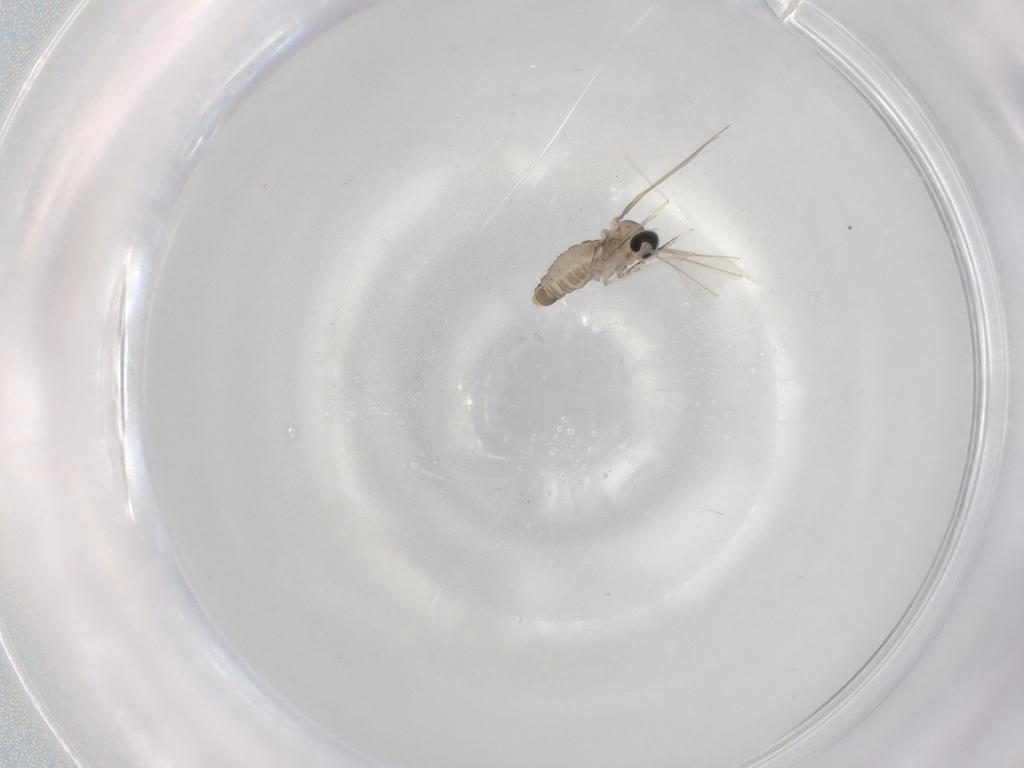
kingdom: Animalia
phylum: Arthropoda
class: Insecta
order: Diptera
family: Cecidomyiidae
